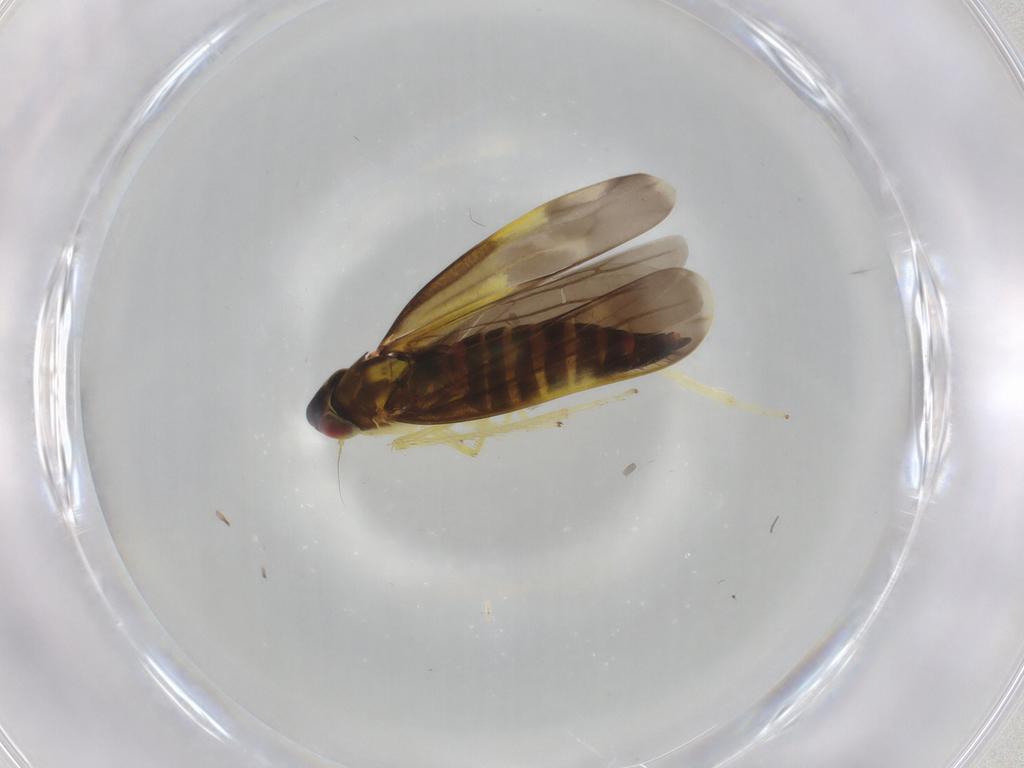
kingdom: Animalia
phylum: Arthropoda
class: Insecta
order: Hemiptera
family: Cicadellidae
